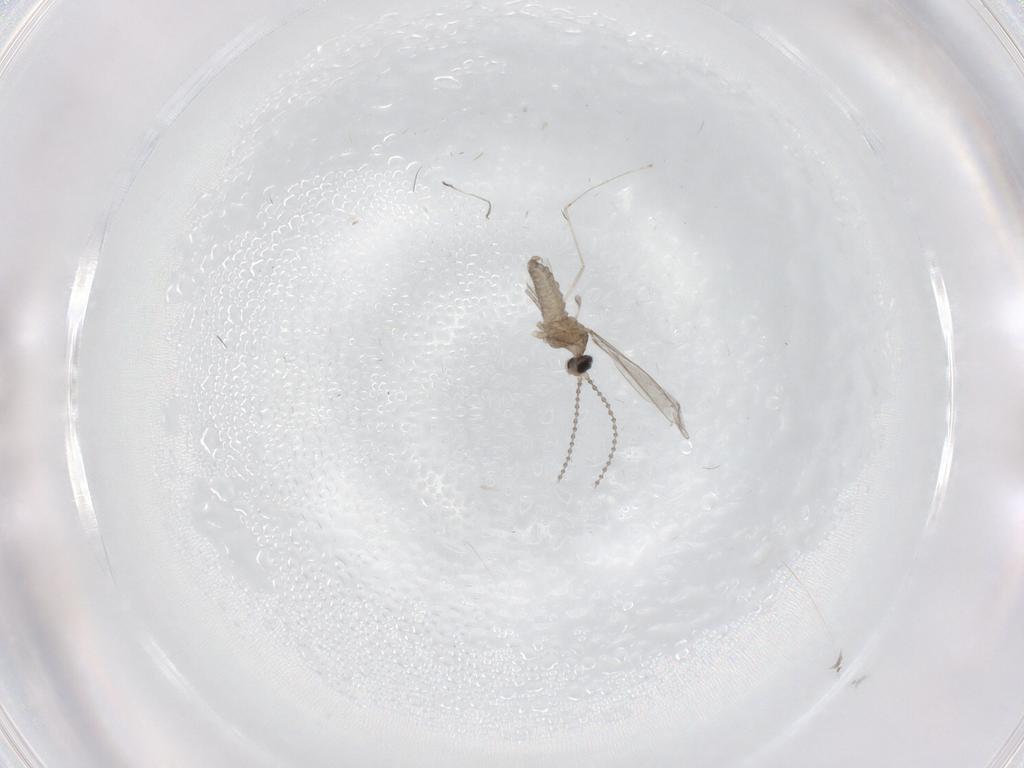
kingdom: Animalia
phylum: Arthropoda
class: Insecta
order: Diptera
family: Cecidomyiidae
